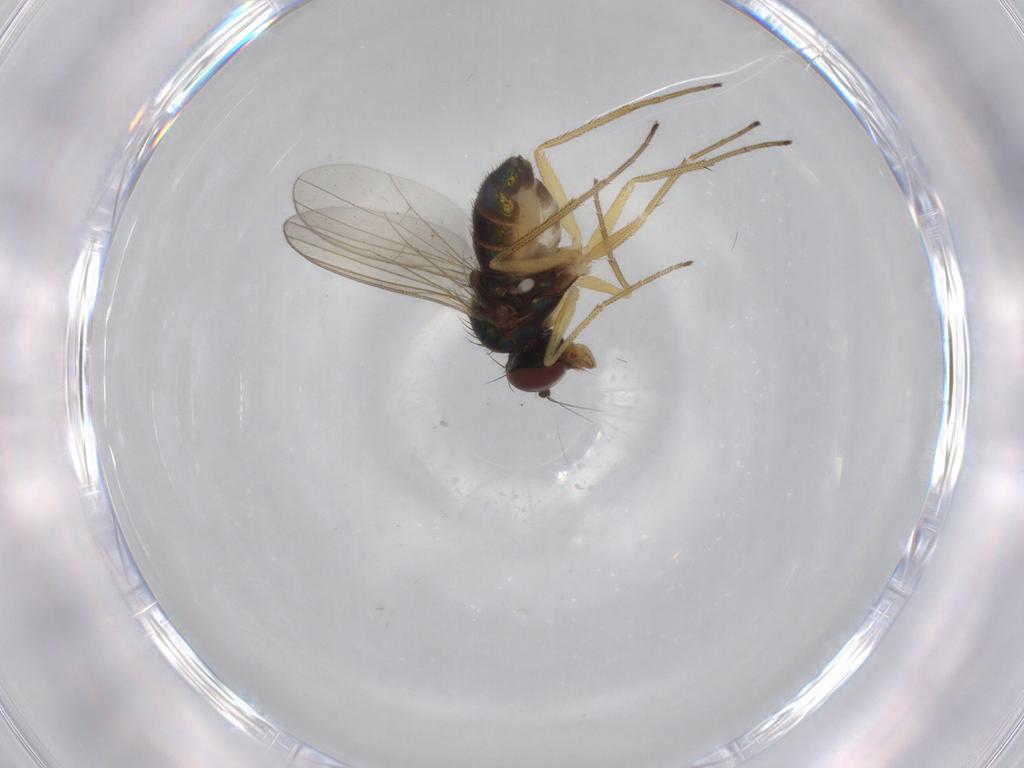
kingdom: Animalia
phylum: Arthropoda
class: Insecta
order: Diptera
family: Dolichopodidae
